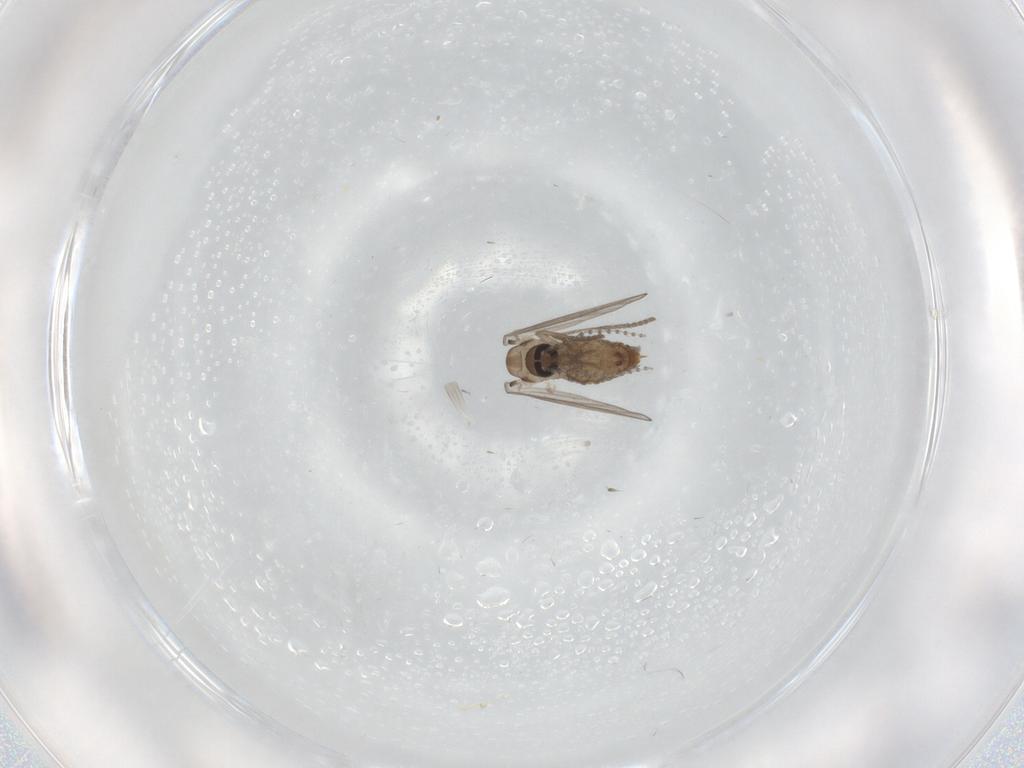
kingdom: Animalia
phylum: Arthropoda
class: Insecta
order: Diptera
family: Psychodidae
